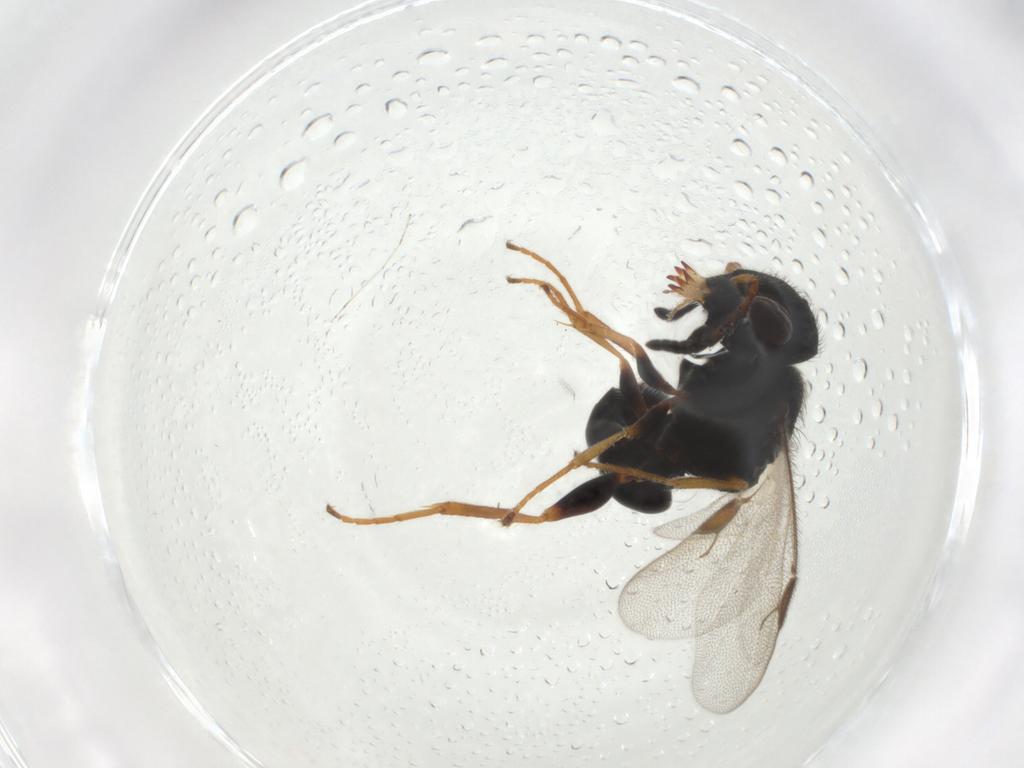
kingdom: Animalia
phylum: Arthropoda
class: Insecta
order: Hymenoptera
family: Dryinidae
